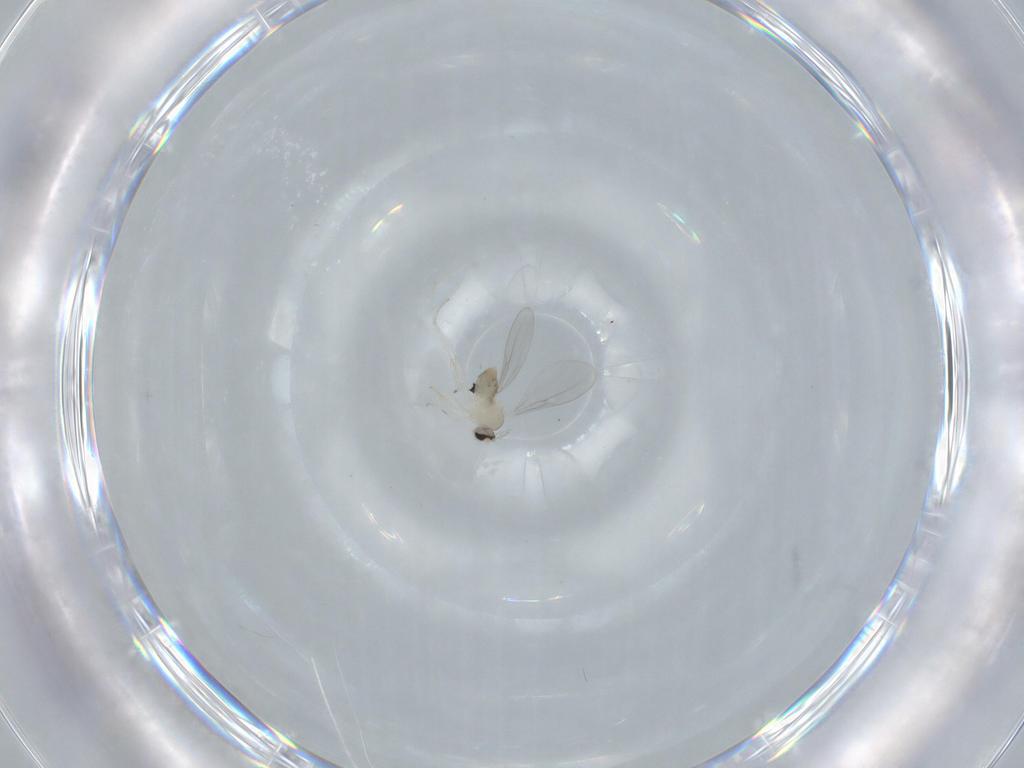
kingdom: Animalia
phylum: Arthropoda
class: Insecta
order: Diptera
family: Cecidomyiidae
